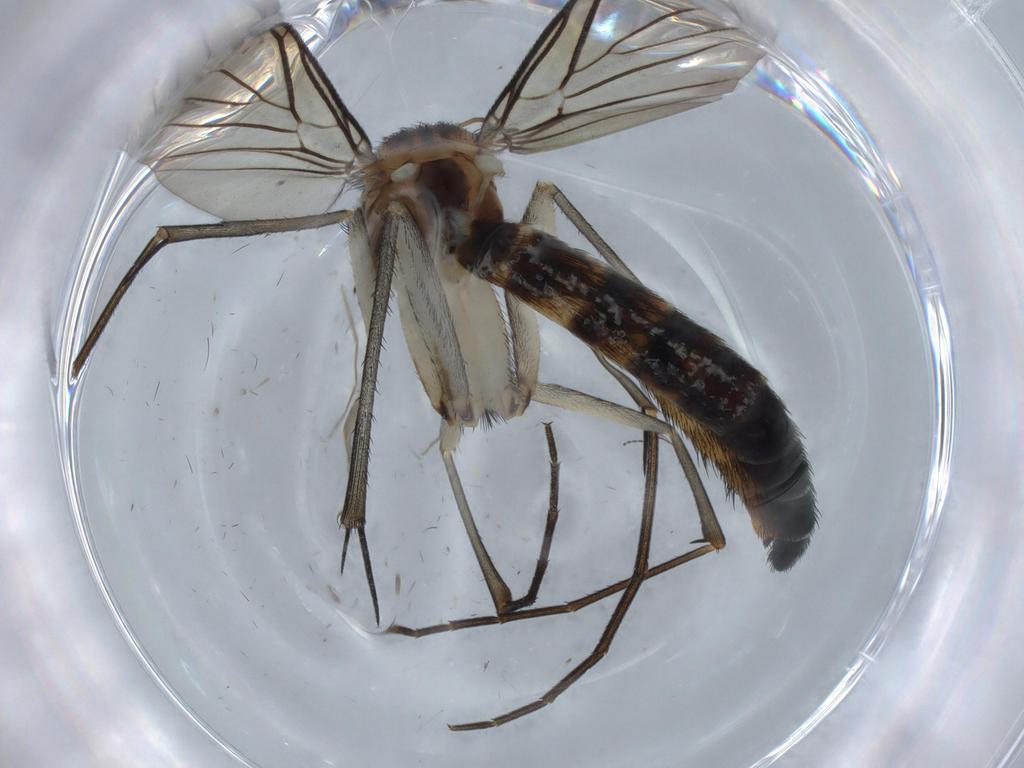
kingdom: Animalia
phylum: Arthropoda
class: Insecta
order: Diptera
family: Keroplatidae
